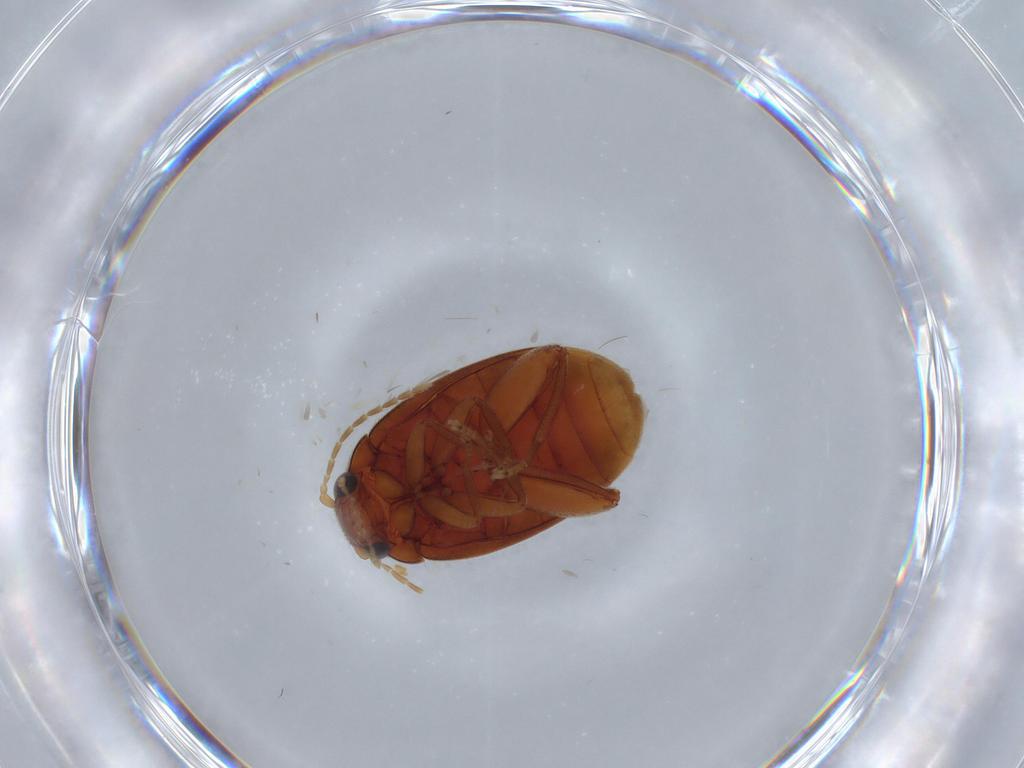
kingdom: Animalia
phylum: Arthropoda
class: Insecta
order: Coleoptera
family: Scirtidae
